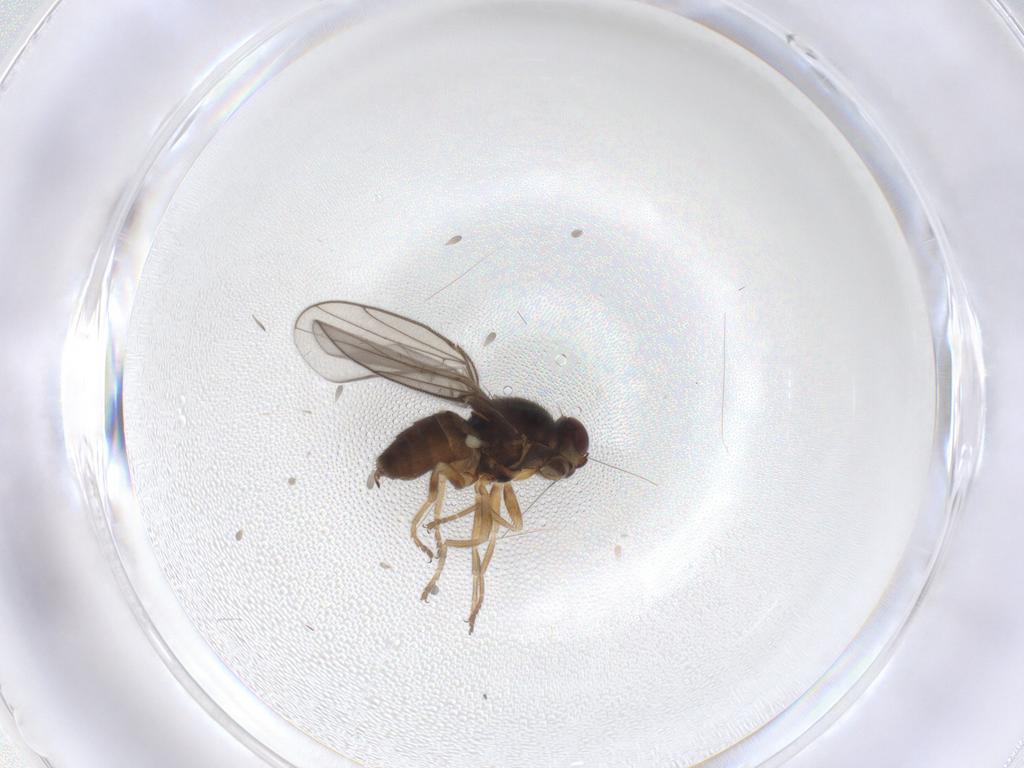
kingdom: Animalia
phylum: Arthropoda
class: Insecta
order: Diptera
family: Chloropidae
